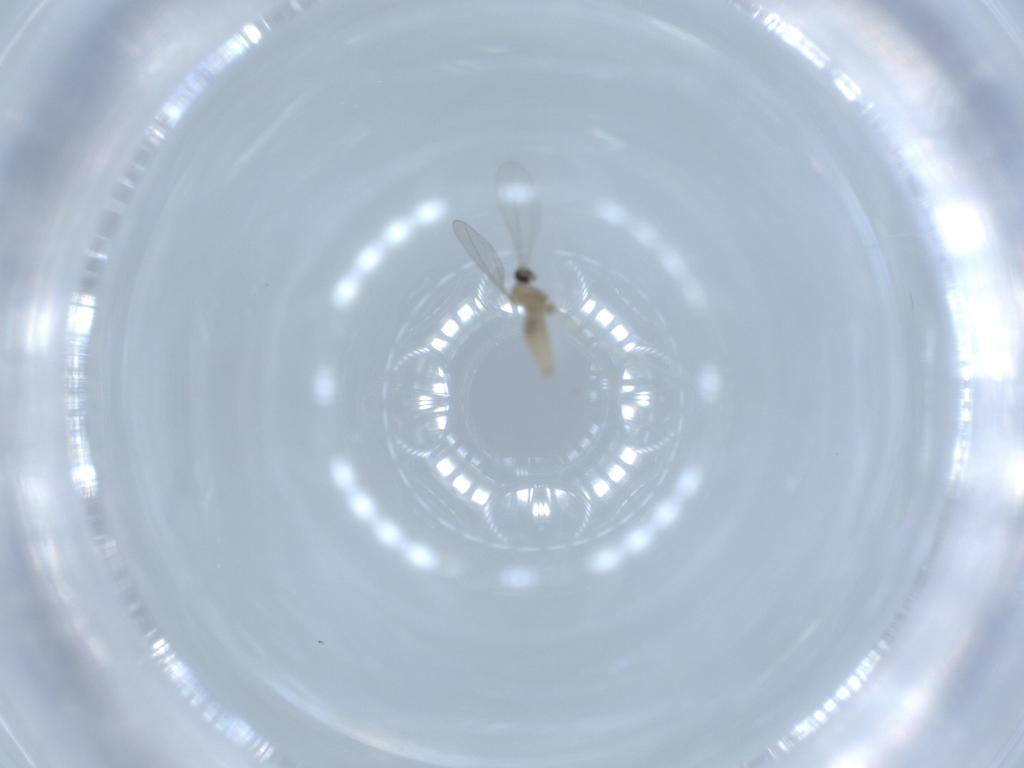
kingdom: Animalia
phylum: Arthropoda
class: Insecta
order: Diptera
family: Cecidomyiidae
